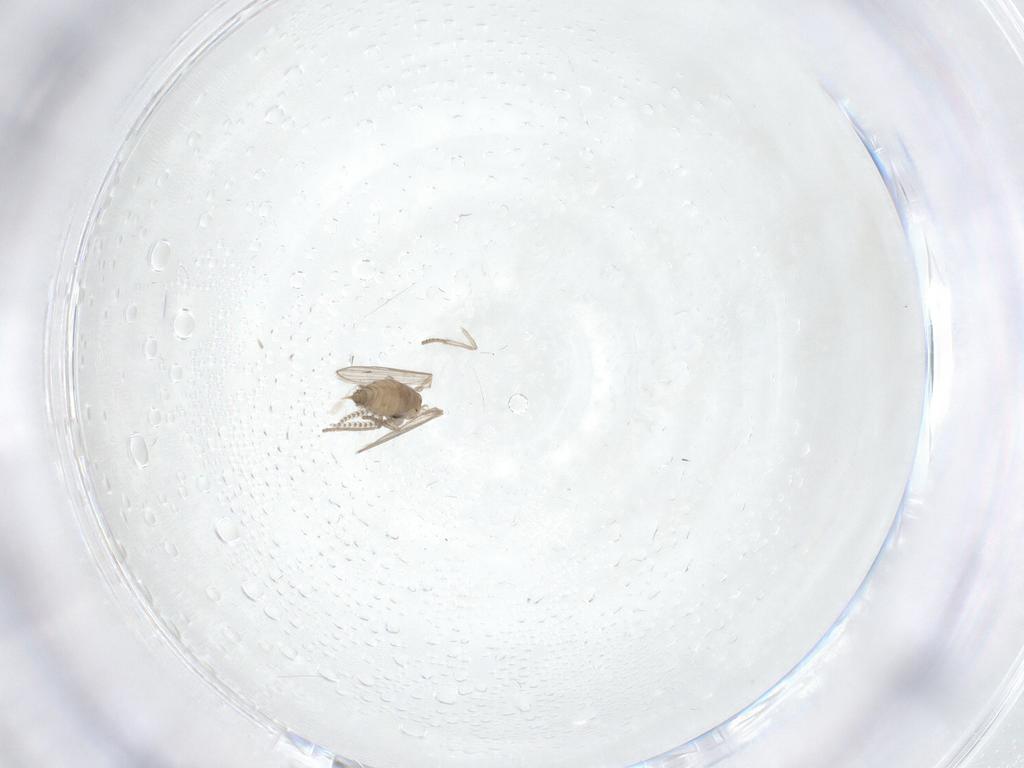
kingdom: Animalia
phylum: Arthropoda
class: Insecta
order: Diptera
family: Psychodidae
